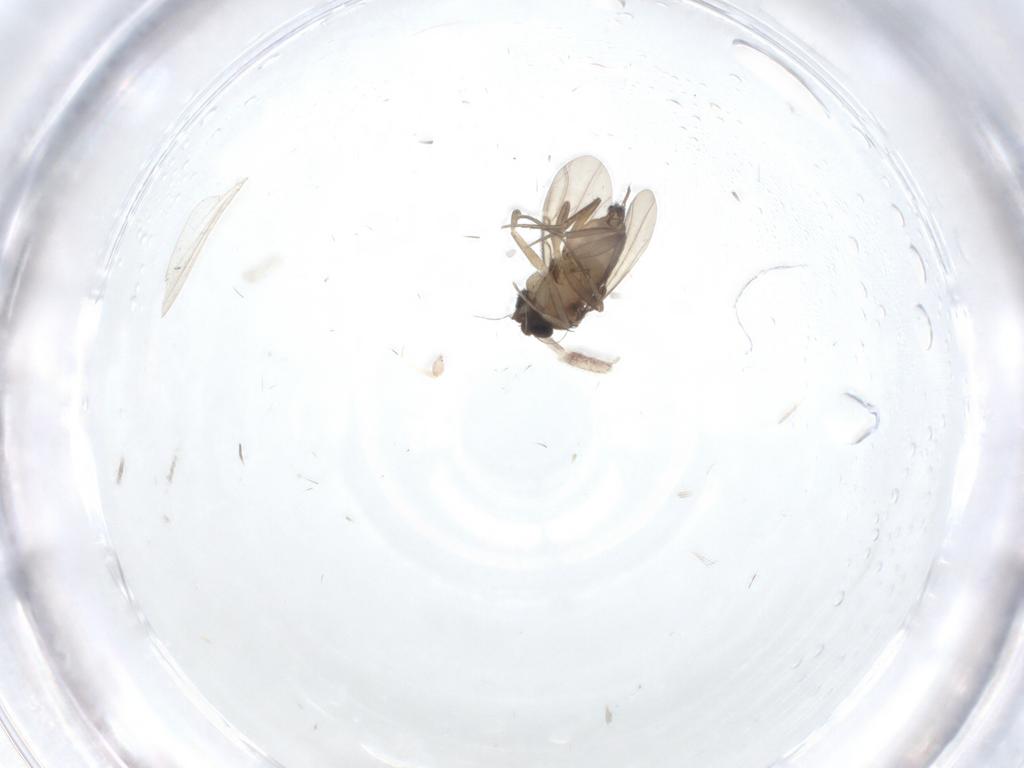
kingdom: Animalia
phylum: Arthropoda
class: Insecta
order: Diptera
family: Phoridae
